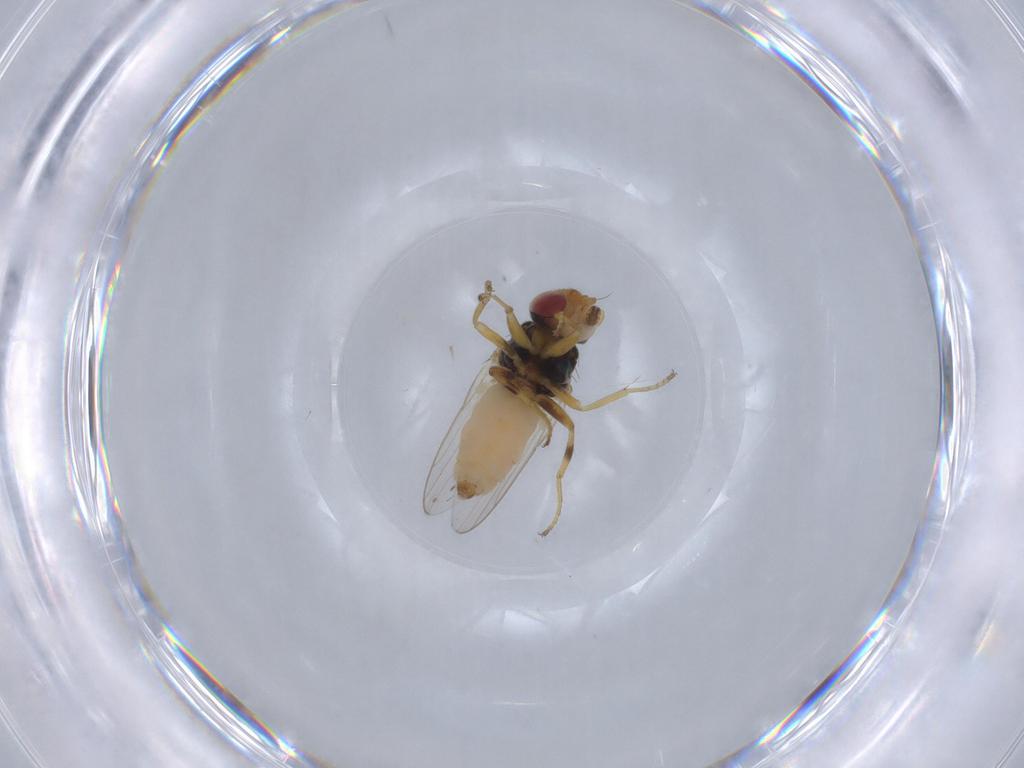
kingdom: Animalia
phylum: Arthropoda
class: Insecta
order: Diptera
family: Chloropidae
